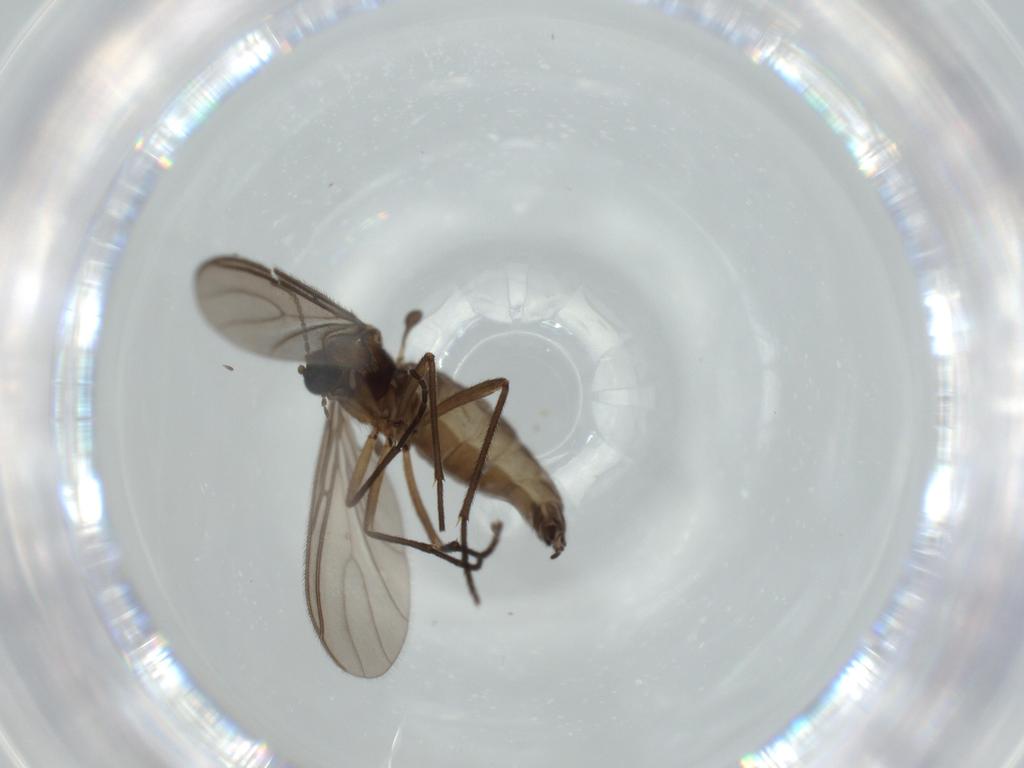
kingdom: Animalia
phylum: Arthropoda
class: Insecta
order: Diptera
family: Sciaridae
